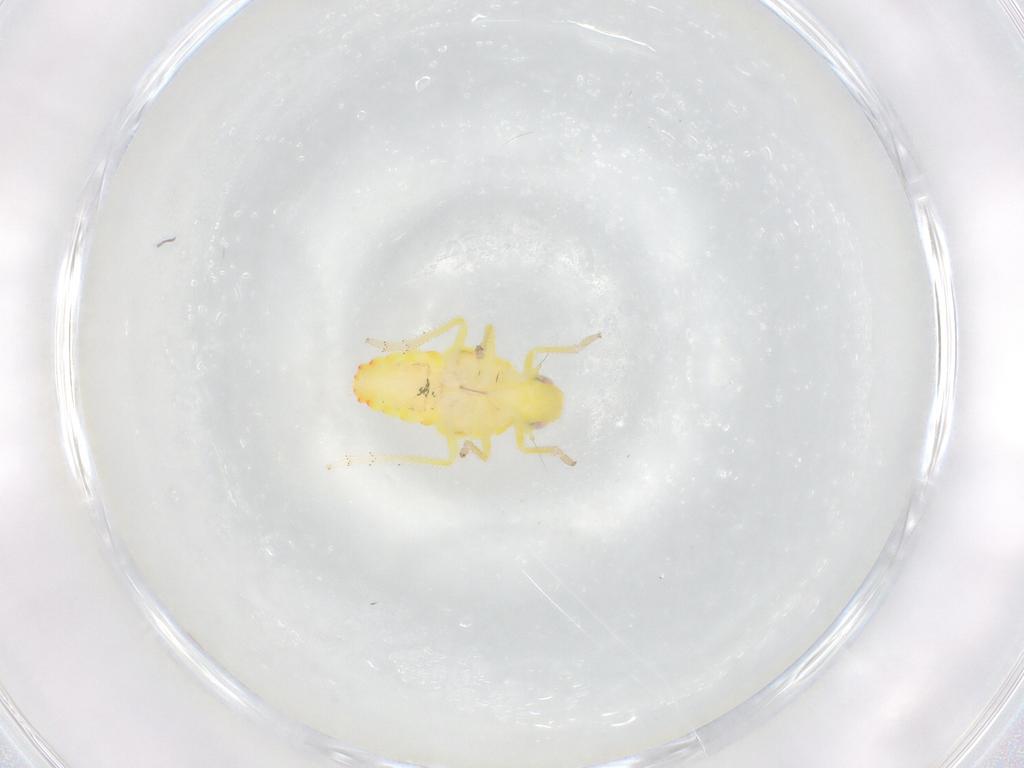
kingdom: Animalia
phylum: Arthropoda
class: Insecta
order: Hemiptera
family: Tropiduchidae
